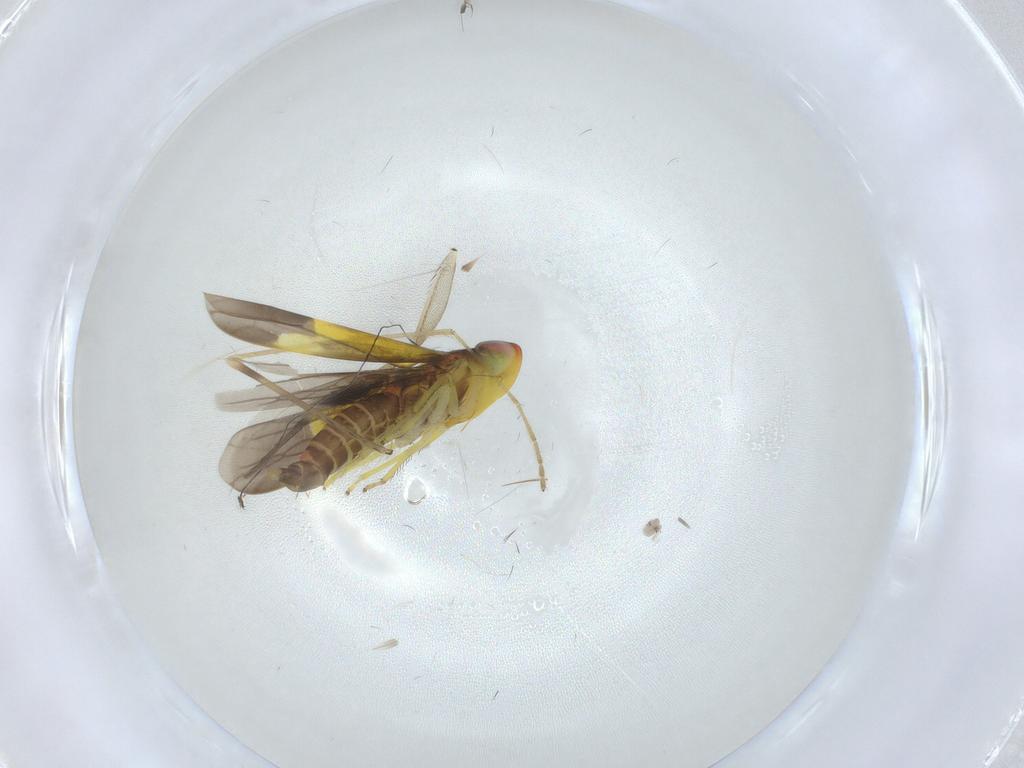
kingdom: Animalia
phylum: Arthropoda
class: Insecta
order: Hemiptera
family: Cicadellidae
